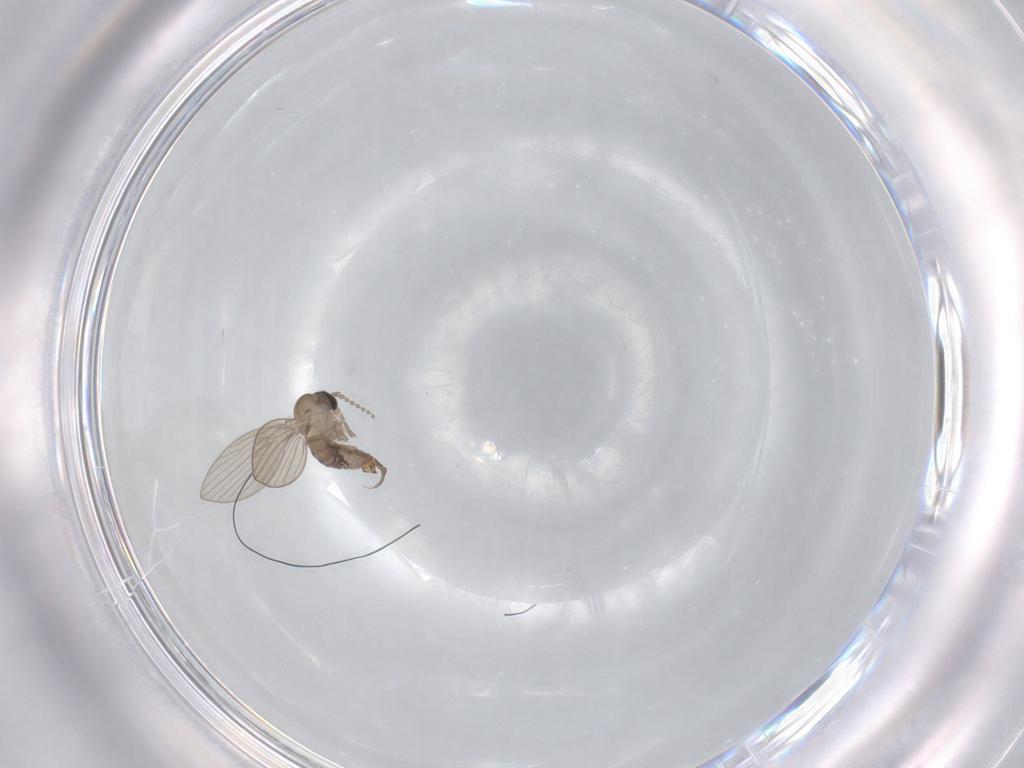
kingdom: Animalia
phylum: Arthropoda
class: Insecta
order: Diptera
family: Psychodidae
